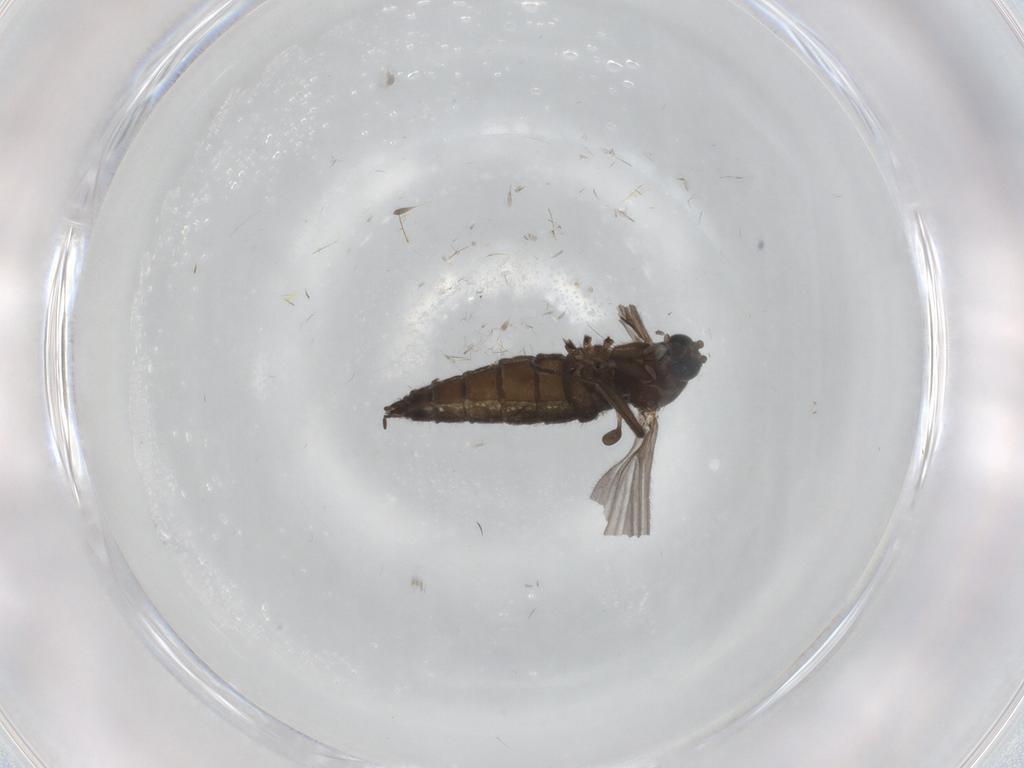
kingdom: Animalia
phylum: Arthropoda
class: Insecta
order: Diptera
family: Sciaridae
